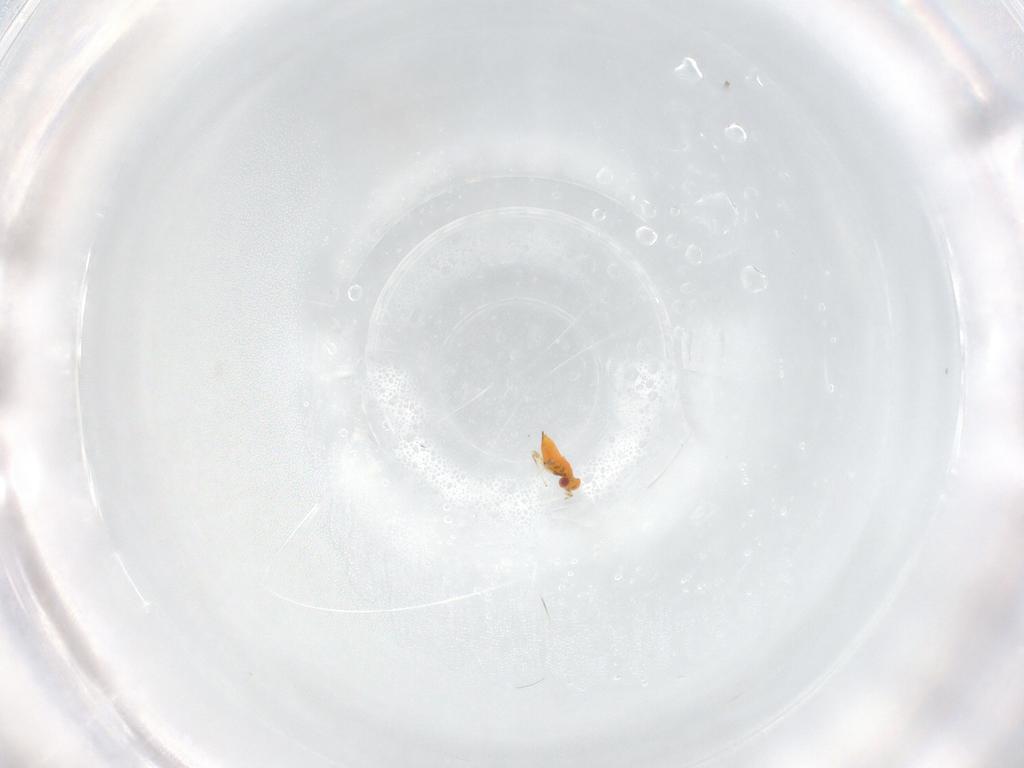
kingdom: Animalia
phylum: Arthropoda
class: Insecta
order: Hymenoptera
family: Trichogrammatidae
